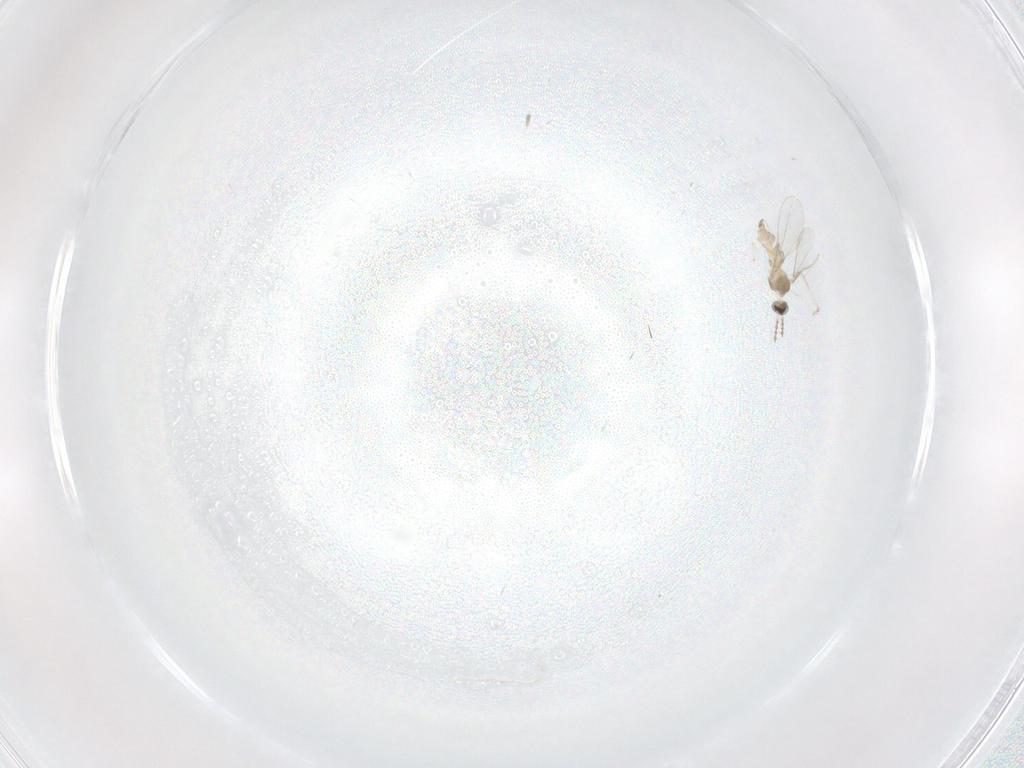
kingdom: Animalia
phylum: Arthropoda
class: Insecta
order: Diptera
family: Cecidomyiidae
